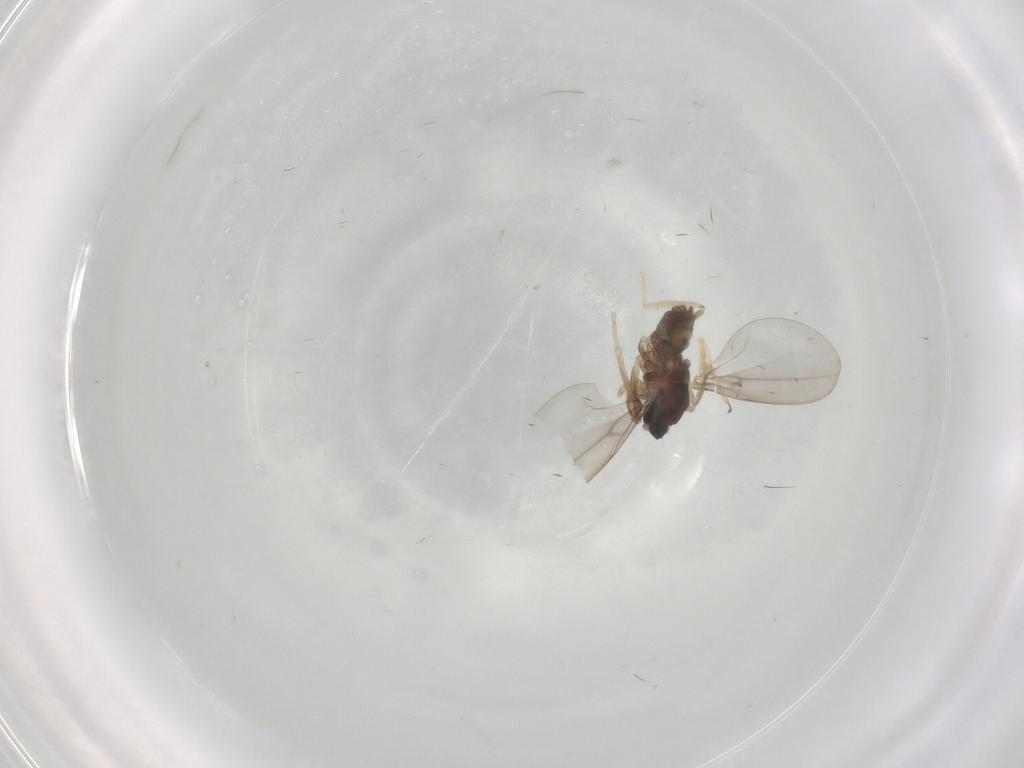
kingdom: Animalia
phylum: Arthropoda
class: Insecta
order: Diptera
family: Cecidomyiidae
